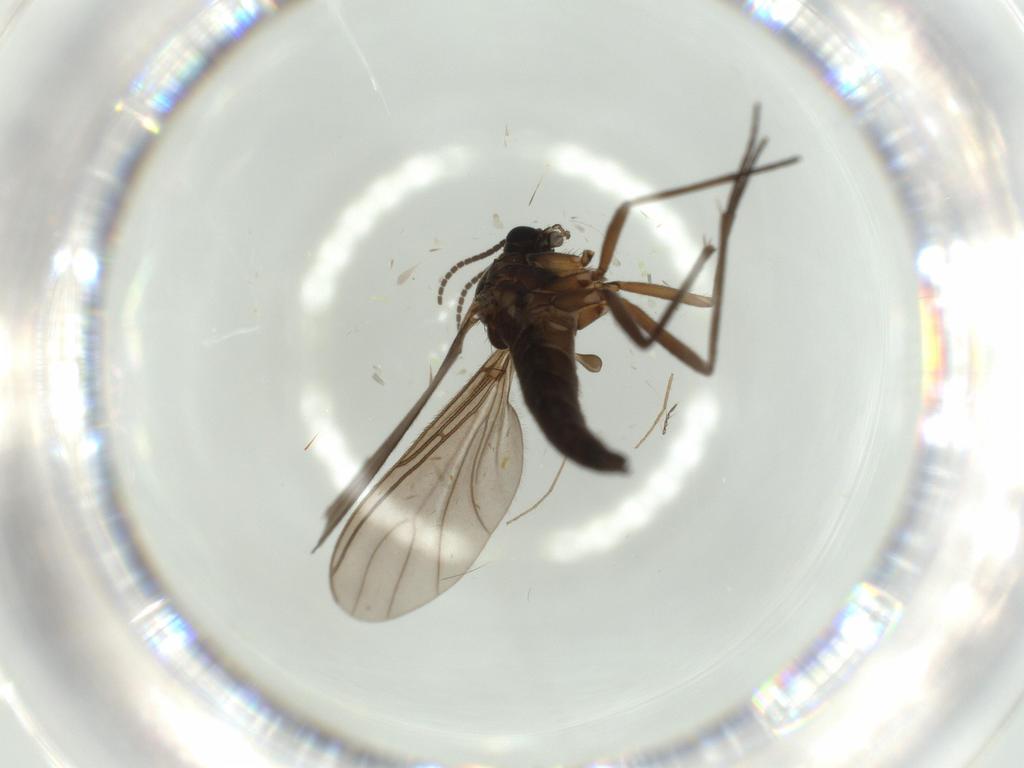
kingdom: Animalia
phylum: Arthropoda
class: Insecta
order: Diptera
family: Sciaridae
